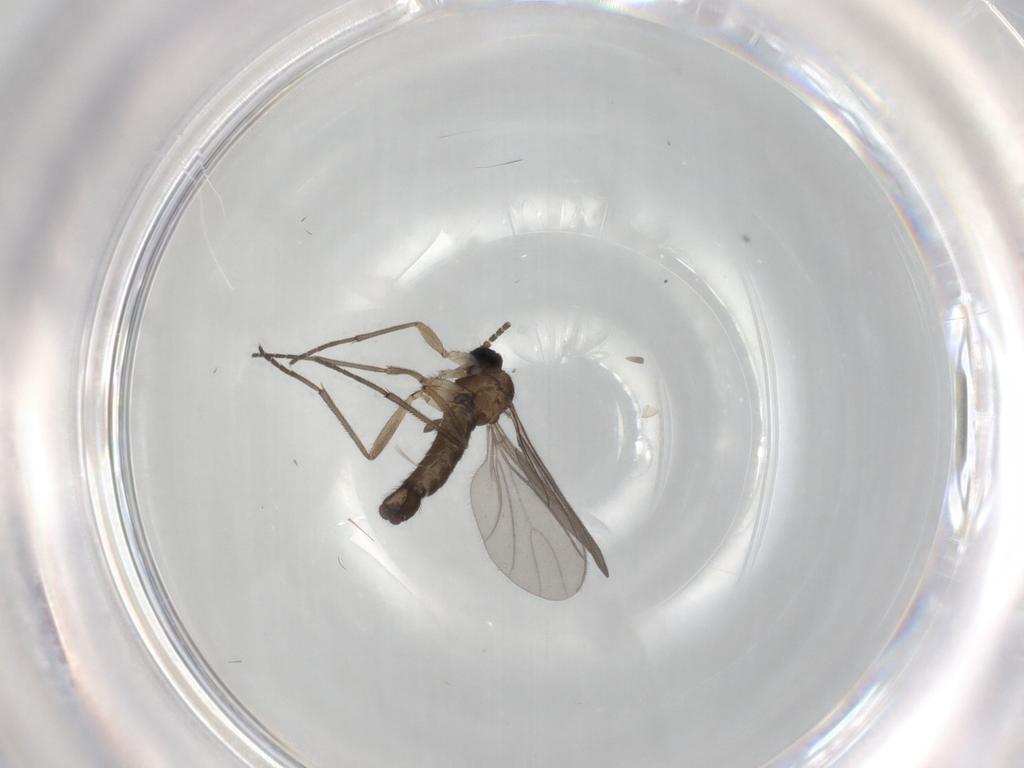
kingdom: Animalia
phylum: Arthropoda
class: Insecta
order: Diptera
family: Sciaridae
